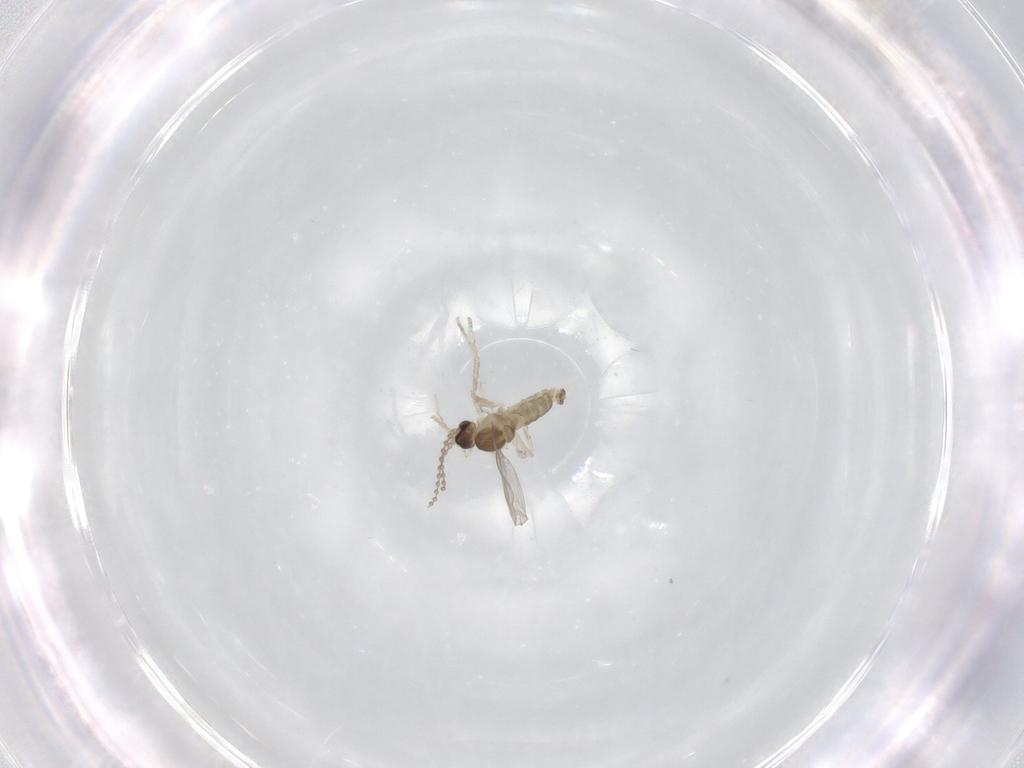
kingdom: Animalia
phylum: Arthropoda
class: Insecta
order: Diptera
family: Cecidomyiidae
